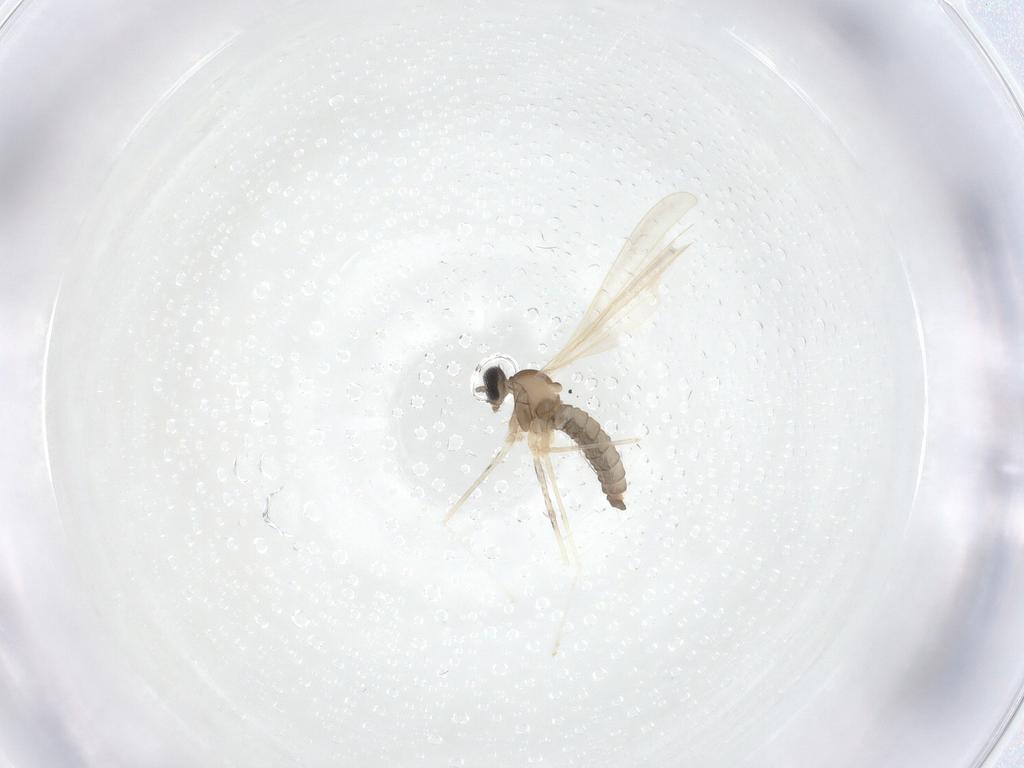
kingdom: Animalia
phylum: Arthropoda
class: Insecta
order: Diptera
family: Cecidomyiidae
